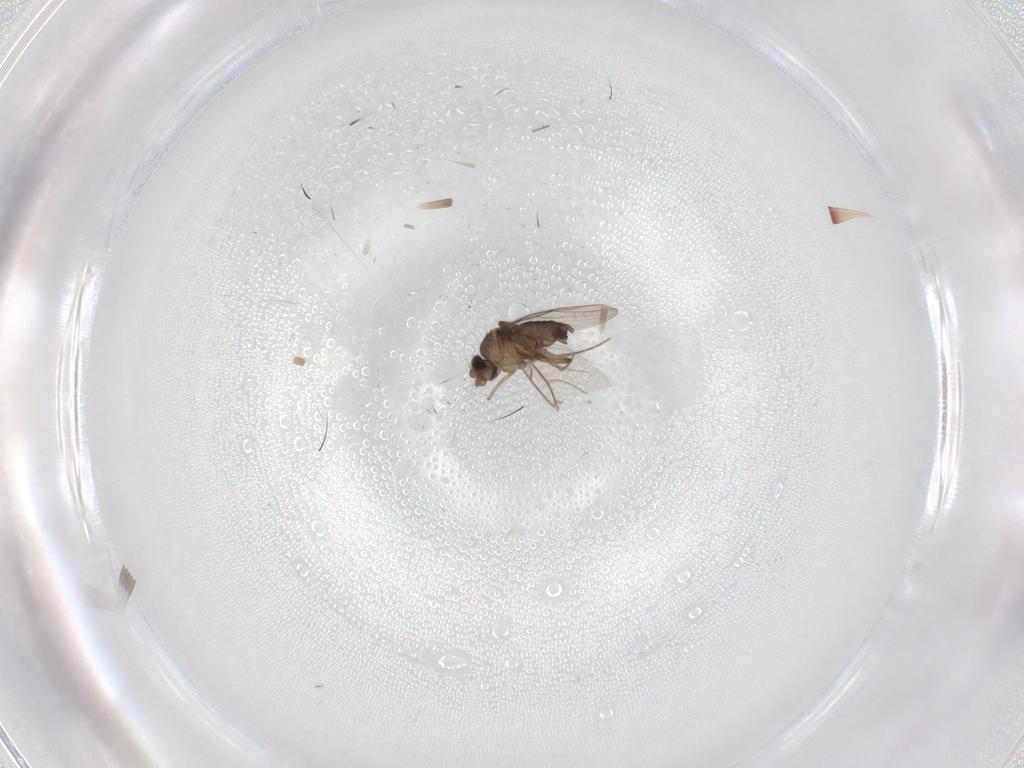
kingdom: Animalia
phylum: Arthropoda
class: Insecta
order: Diptera
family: Phoridae
